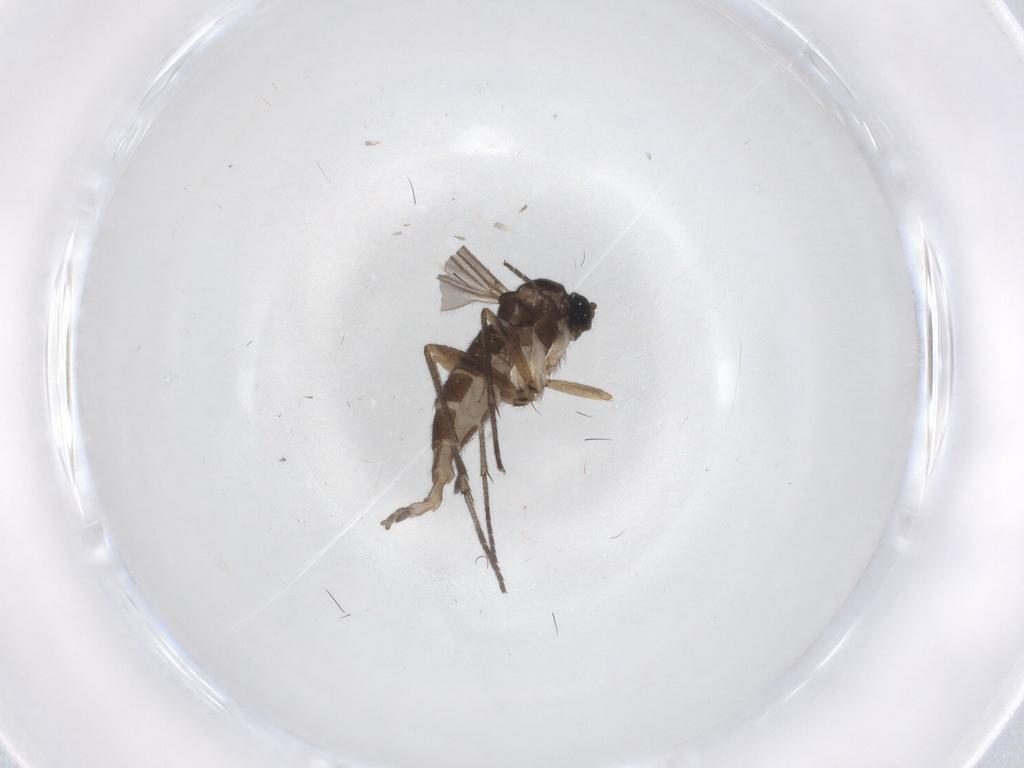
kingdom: Animalia
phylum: Arthropoda
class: Insecta
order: Diptera
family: Sciaridae
